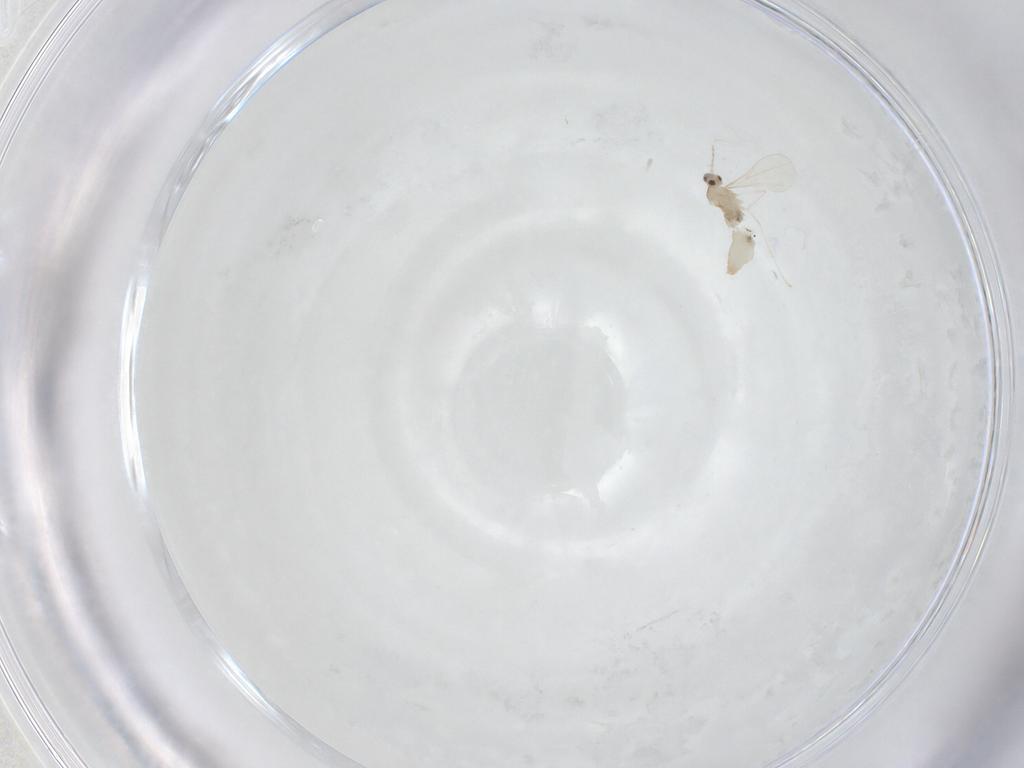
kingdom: Animalia
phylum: Arthropoda
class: Insecta
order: Diptera
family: Cecidomyiidae
